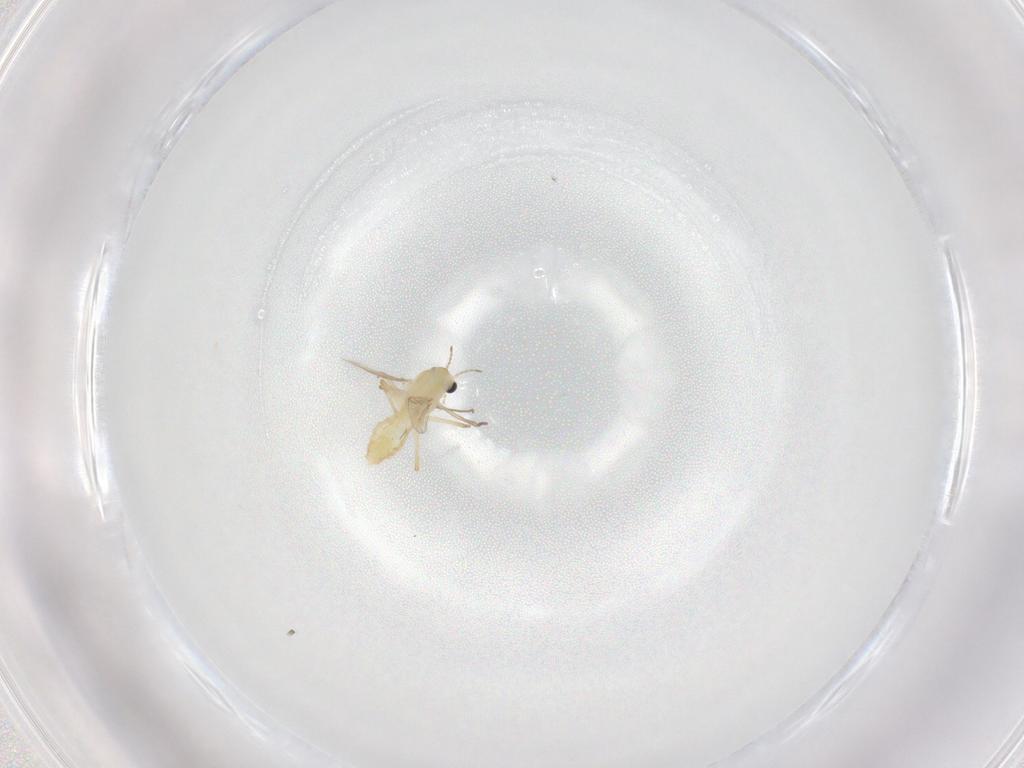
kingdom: Animalia
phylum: Arthropoda
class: Insecta
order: Diptera
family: Chironomidae
